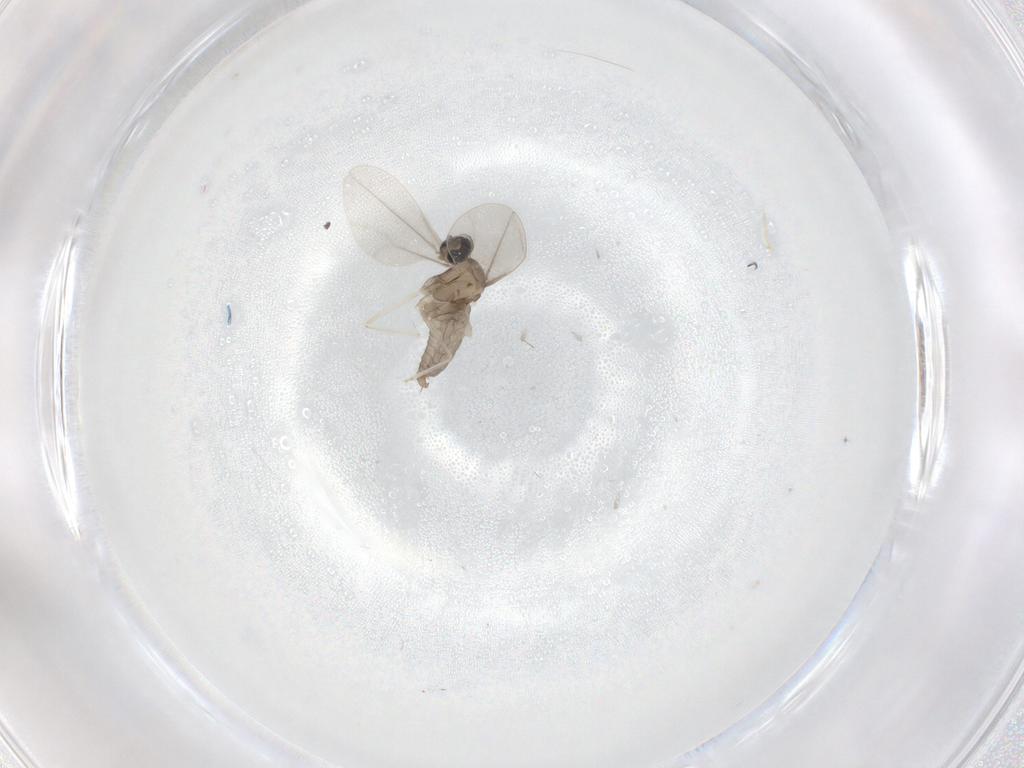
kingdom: Animalia
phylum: Arthropoda
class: Insecta
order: Diptera
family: Cecidomyiidae
